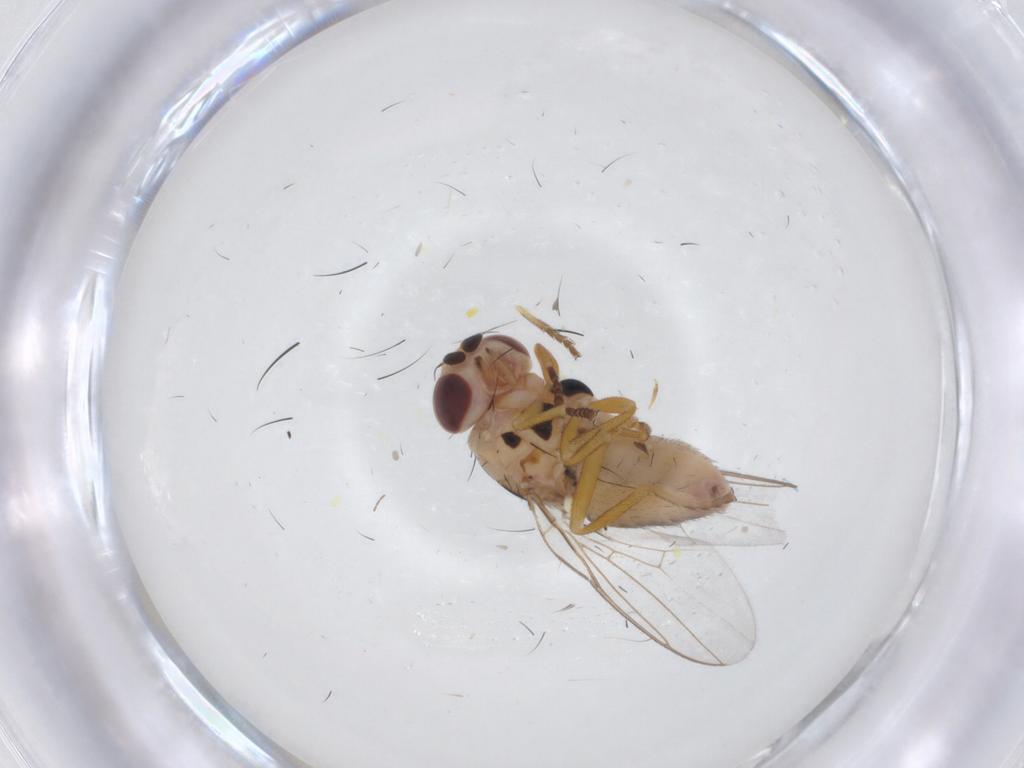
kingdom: Animalia
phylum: Arthropoda
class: Insecta
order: Diptera
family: Chloropidae
